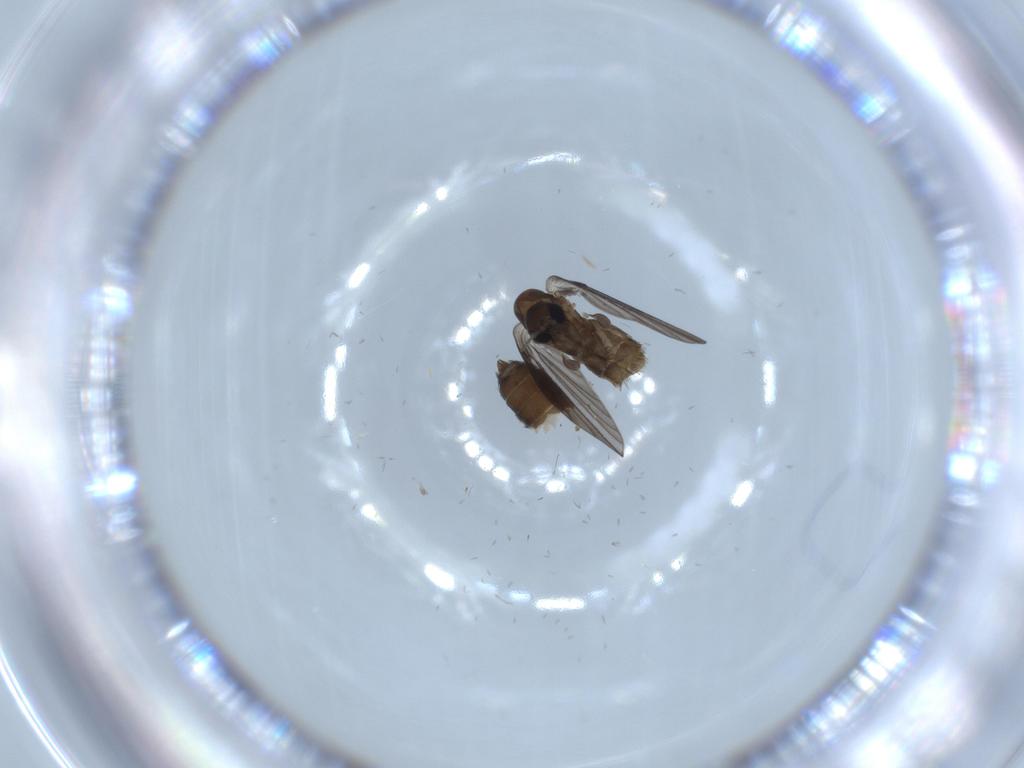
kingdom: Animalia
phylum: Arthropoda
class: Insecta
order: Diptera
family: Psychodidae
